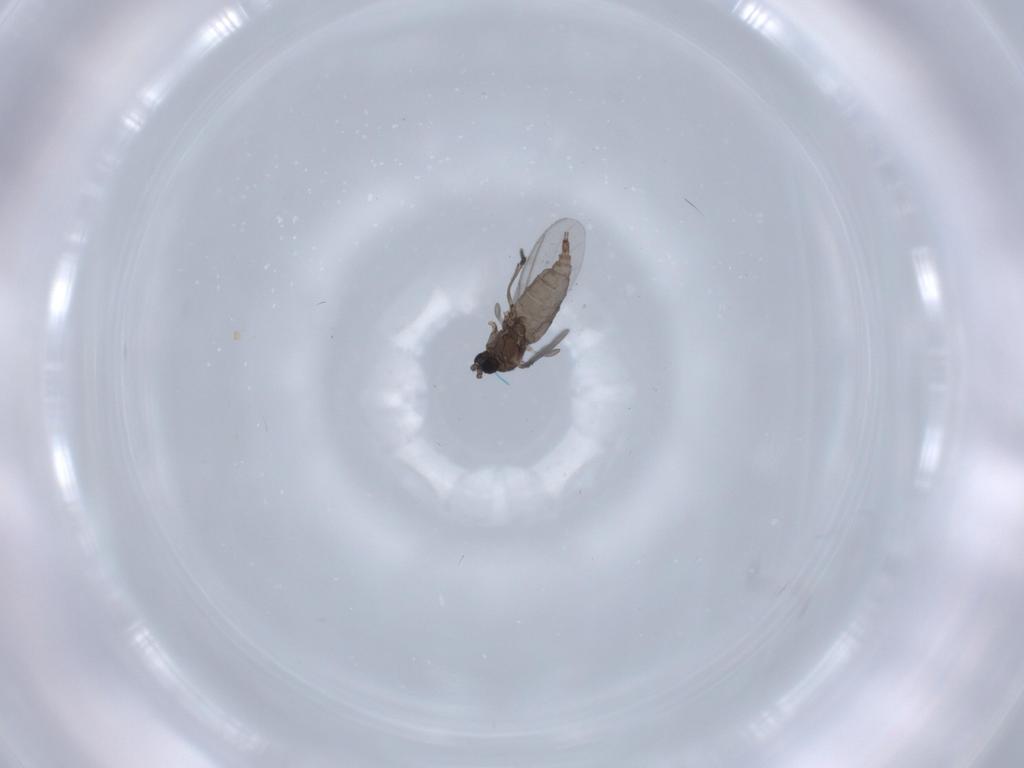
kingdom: Animalia
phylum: Arthropoda
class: Insecta
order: Diptera
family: Sciaridae
